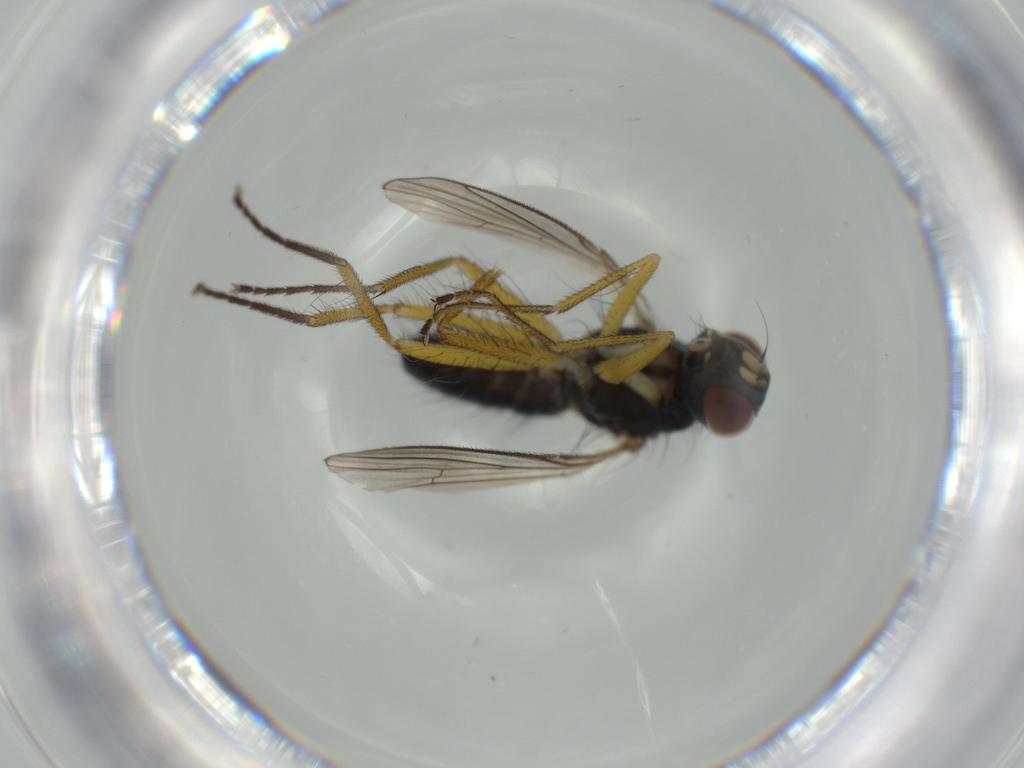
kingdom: Animalia
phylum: Arthropoda
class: Insecta
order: Diptera
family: Muscidae
